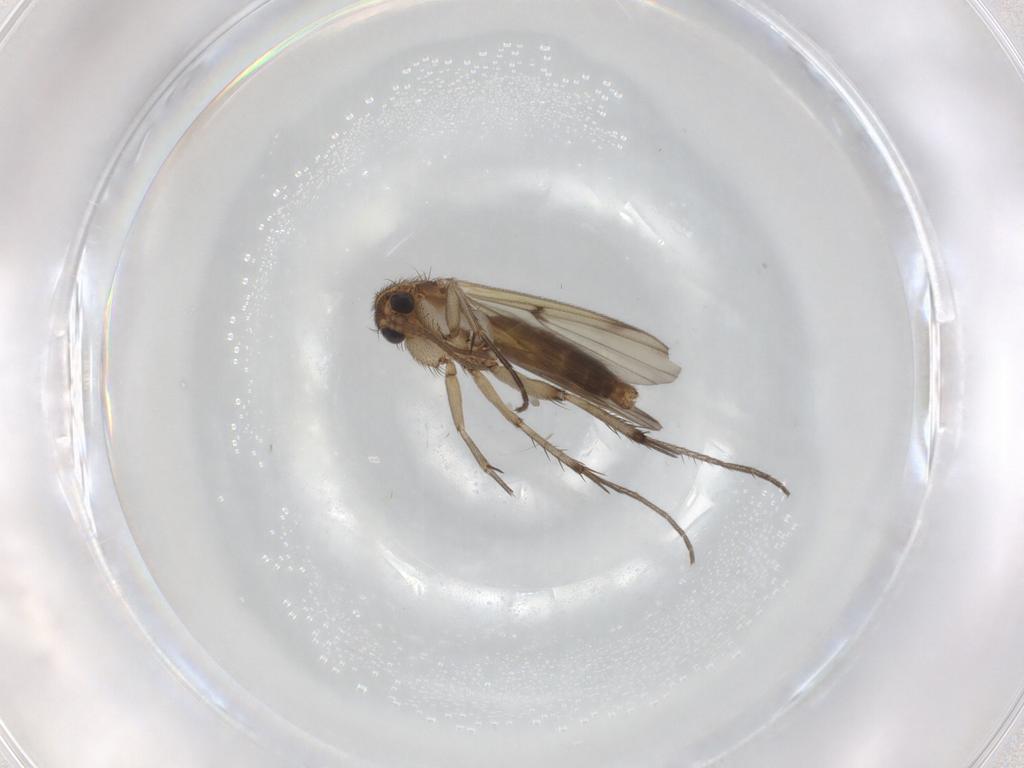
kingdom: Animalia
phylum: Arthropoda
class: Insecta
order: Diptera
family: Mycetophilidae
